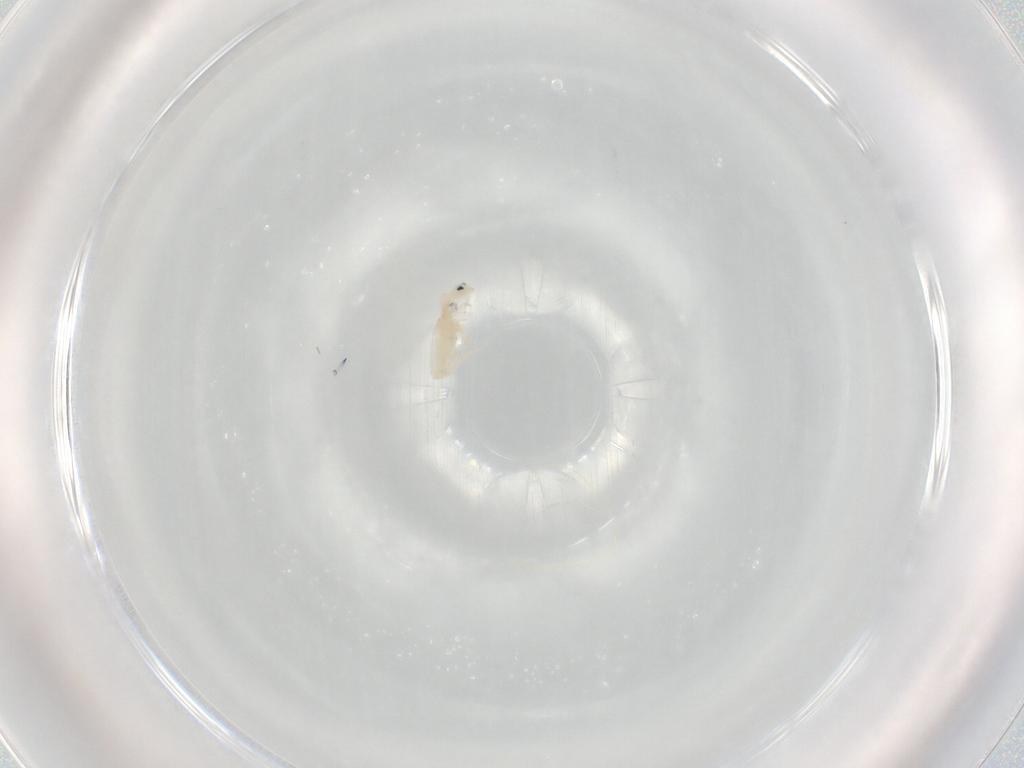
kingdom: Animalia
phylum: Arthropoda
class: Collembola
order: Entomobryomorpha
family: Entomobryidae
